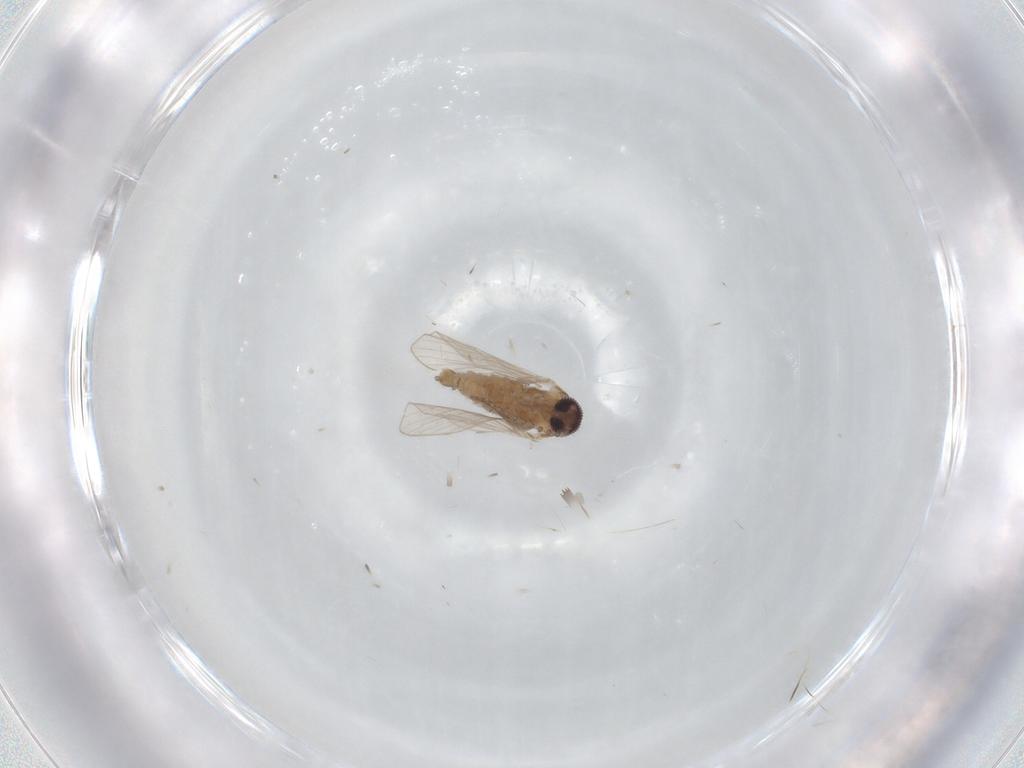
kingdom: Animalia
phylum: Arthropoda
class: Insecta
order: Diptera
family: Psychodidae
